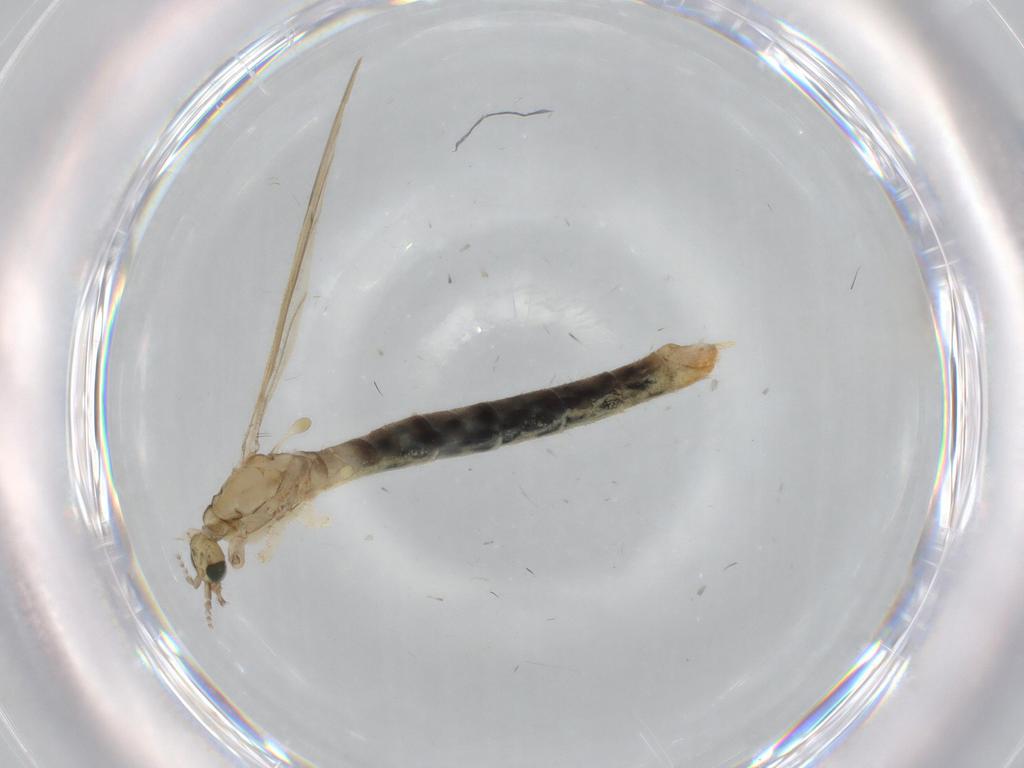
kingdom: Animalia
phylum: Arthropoda
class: Insecta
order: Diptera
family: Limoniidae
